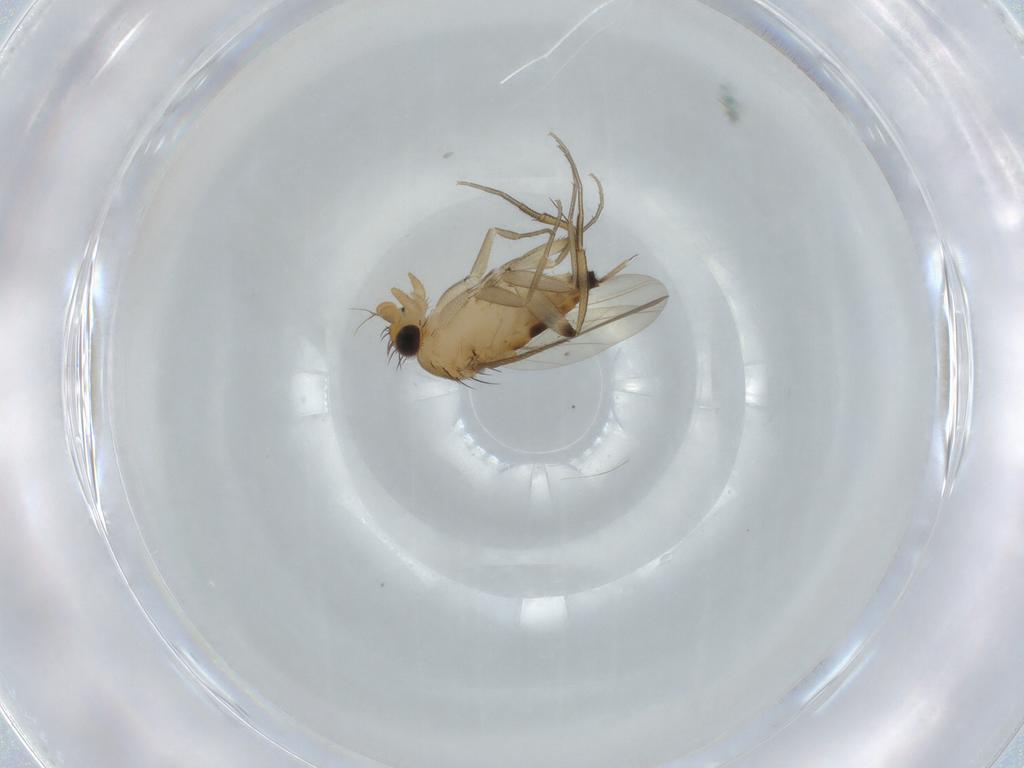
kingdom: Animalia
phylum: Arthropoda
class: Insecta
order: Diptera
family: Phoridae
